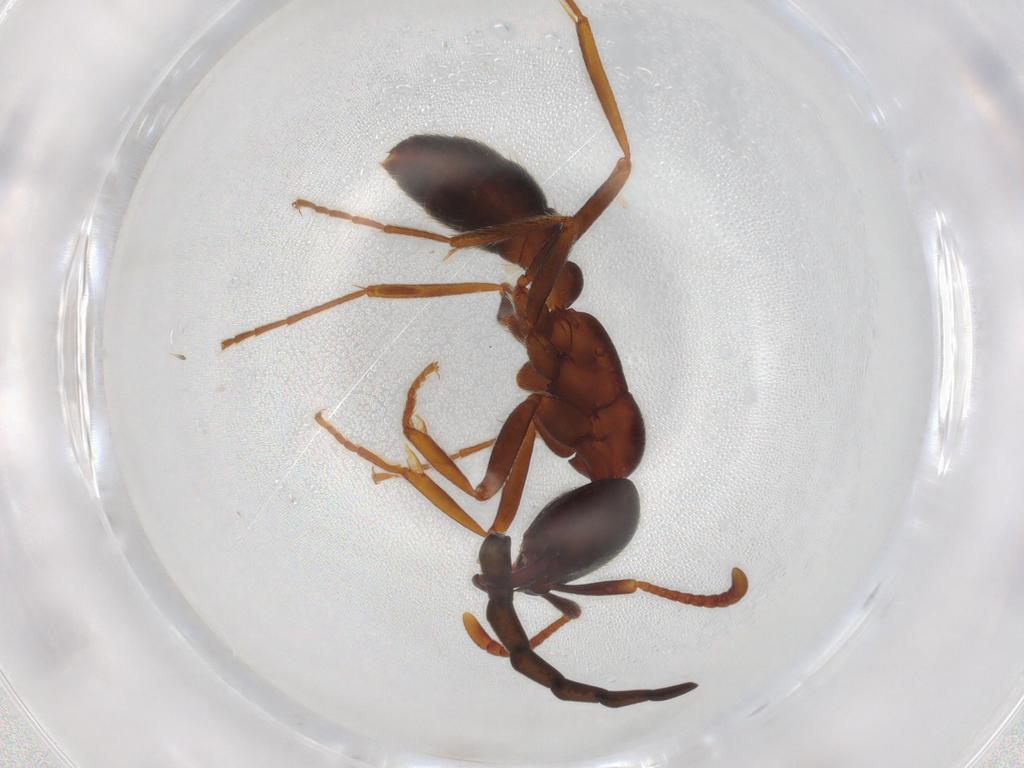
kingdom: Animalia
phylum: Arthropoda
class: Insecta
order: Hymenoptera
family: Formicidae
